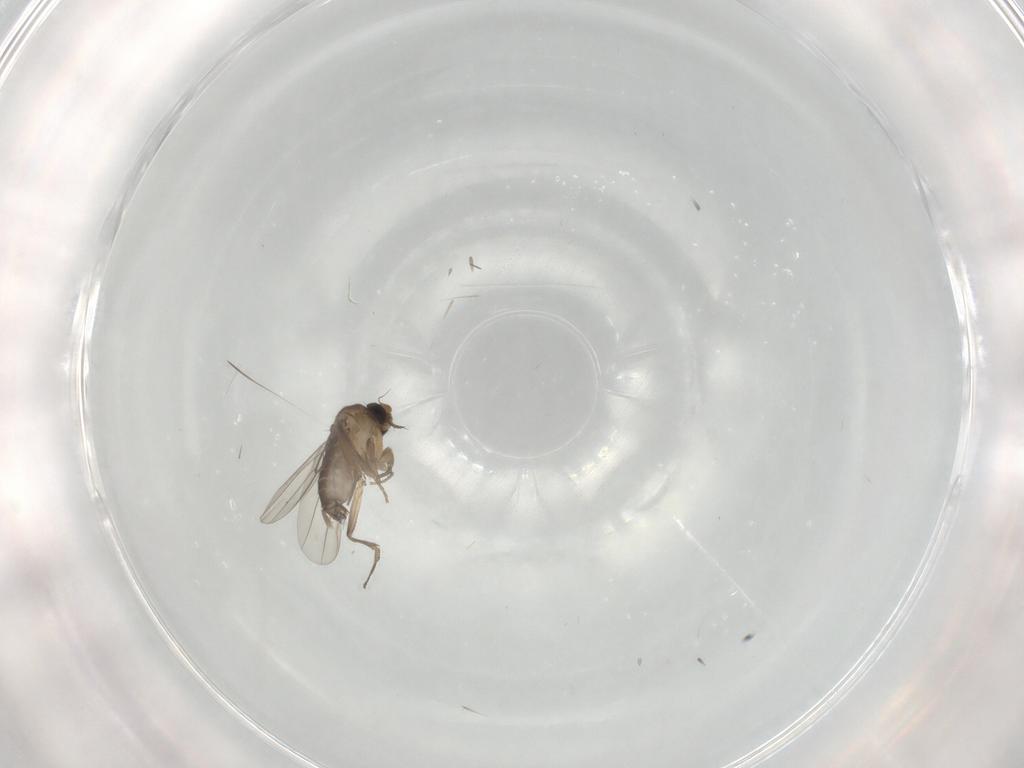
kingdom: Animalia
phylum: Arthropoda
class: Insecta
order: Diptera
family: Phoridae
